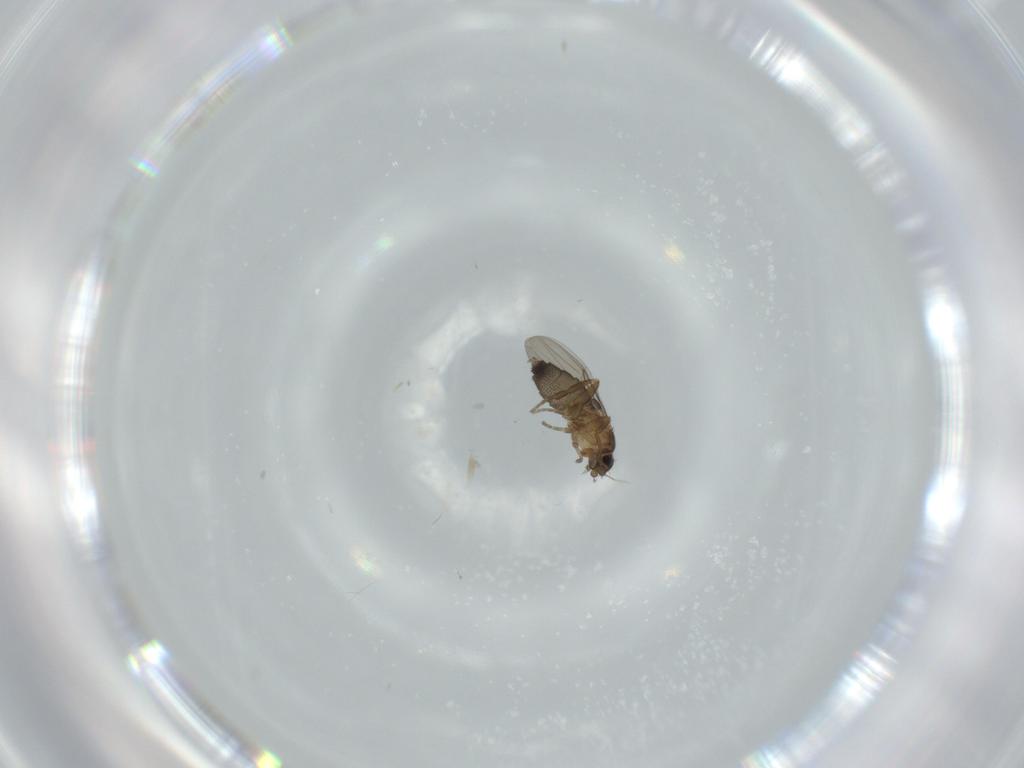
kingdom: Animalia
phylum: Arthropoda
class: Insecta
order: Diptera
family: Phoridae
